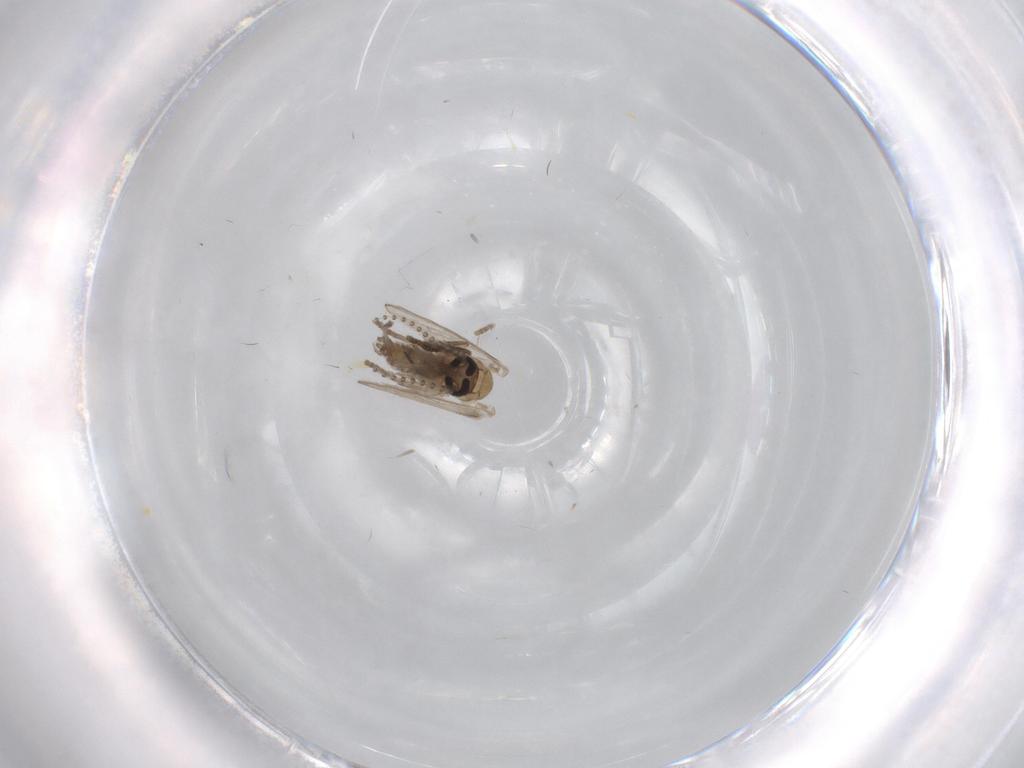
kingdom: Animalia
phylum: Arthropoda
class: Insecta
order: Diptera
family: Psychodidae
